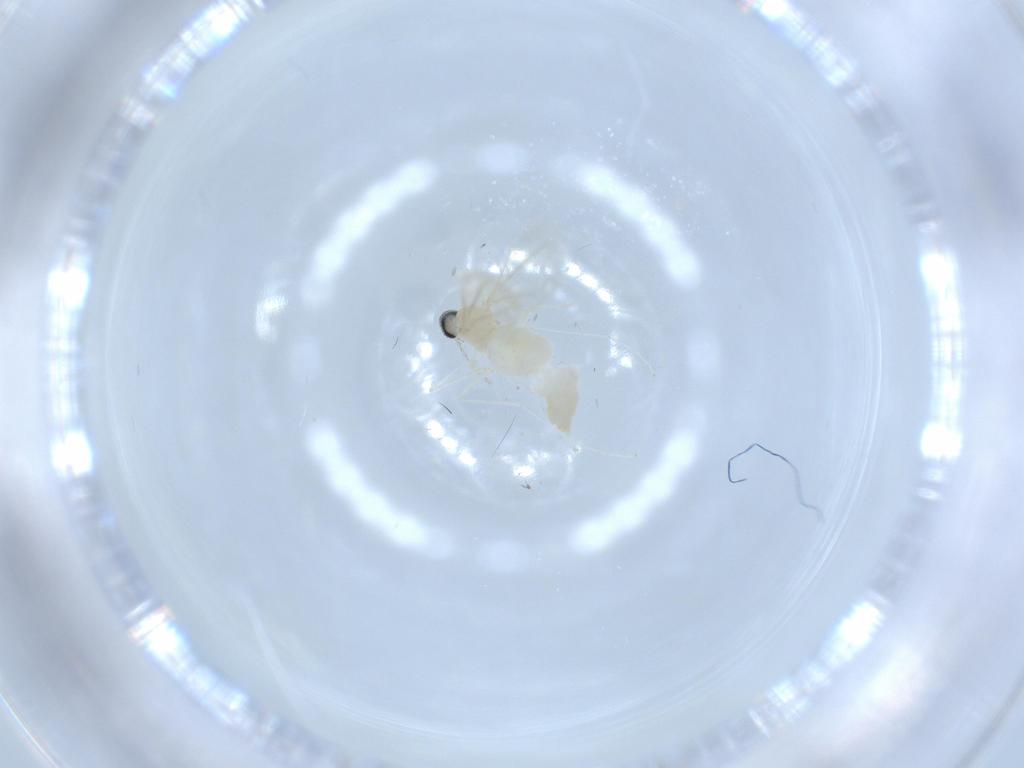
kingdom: Animalia
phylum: Arthropoda
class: Insecta
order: Diptera
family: Cecidomyiidae
